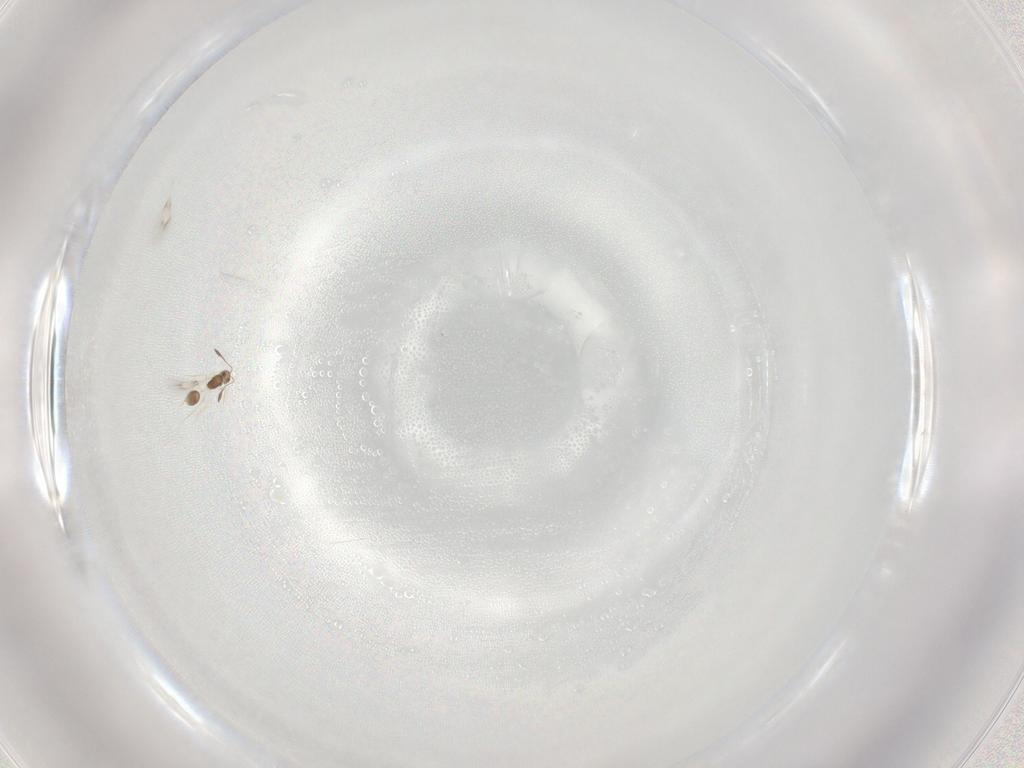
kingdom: Animalia
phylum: Arthropoda
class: Insecta
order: Hymenoptera
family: Mymarommatidae
